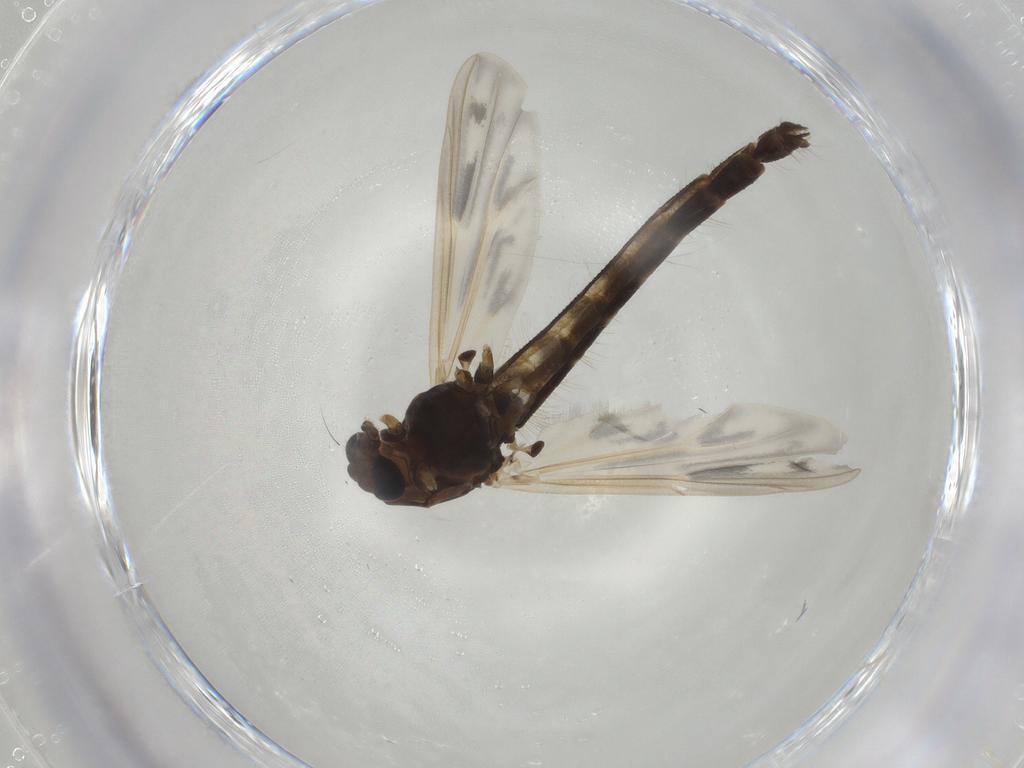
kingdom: Animalia
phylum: Arthropoda
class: Insecta
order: Diptera
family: Chironomidae
